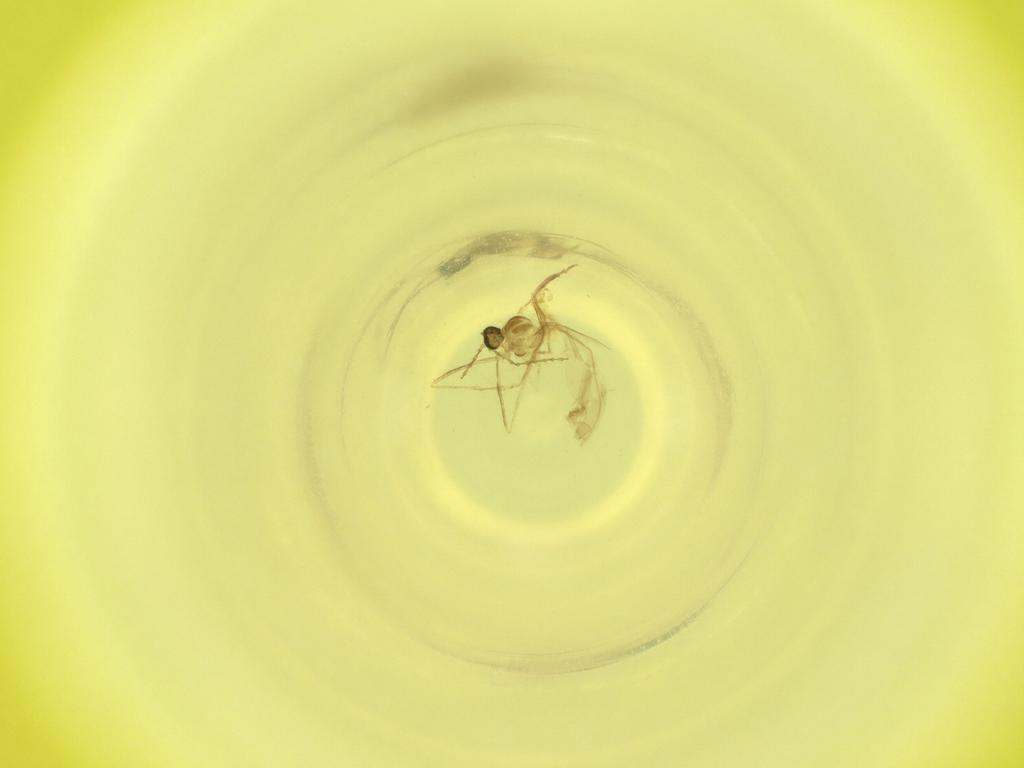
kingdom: Animalia
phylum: Arthropoda
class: Insecta
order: Diptera
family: Cecidomyiidae
